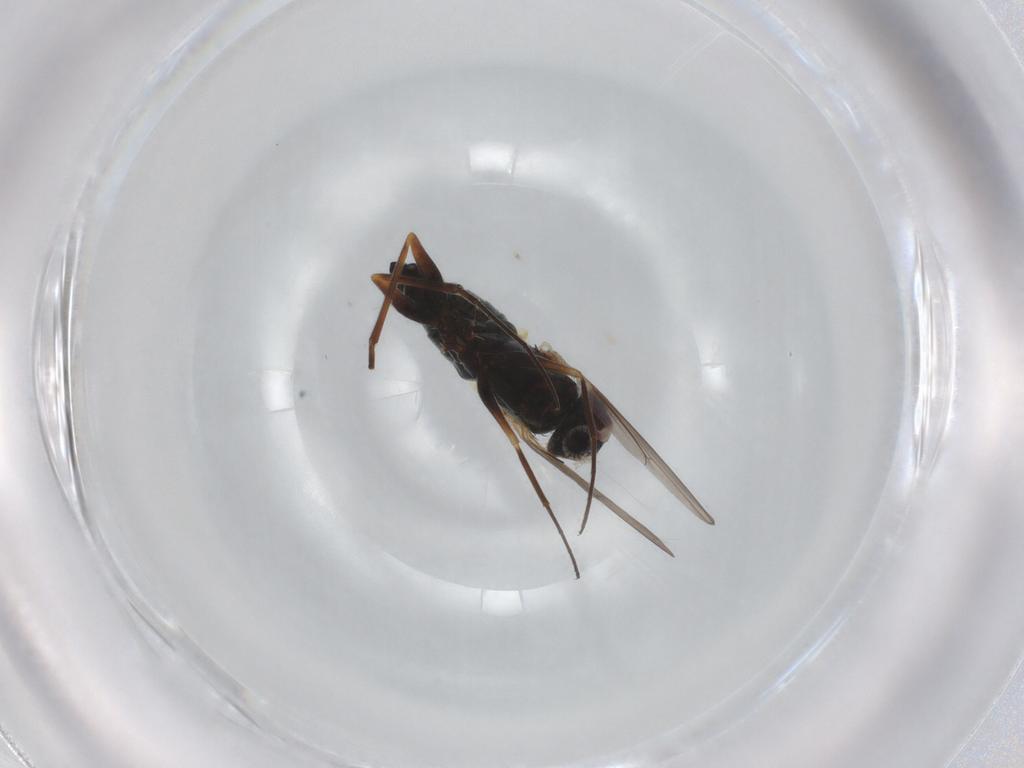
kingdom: Animalia
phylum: Arthropoda
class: Insecta
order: Diptera
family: Dolichopodidae
